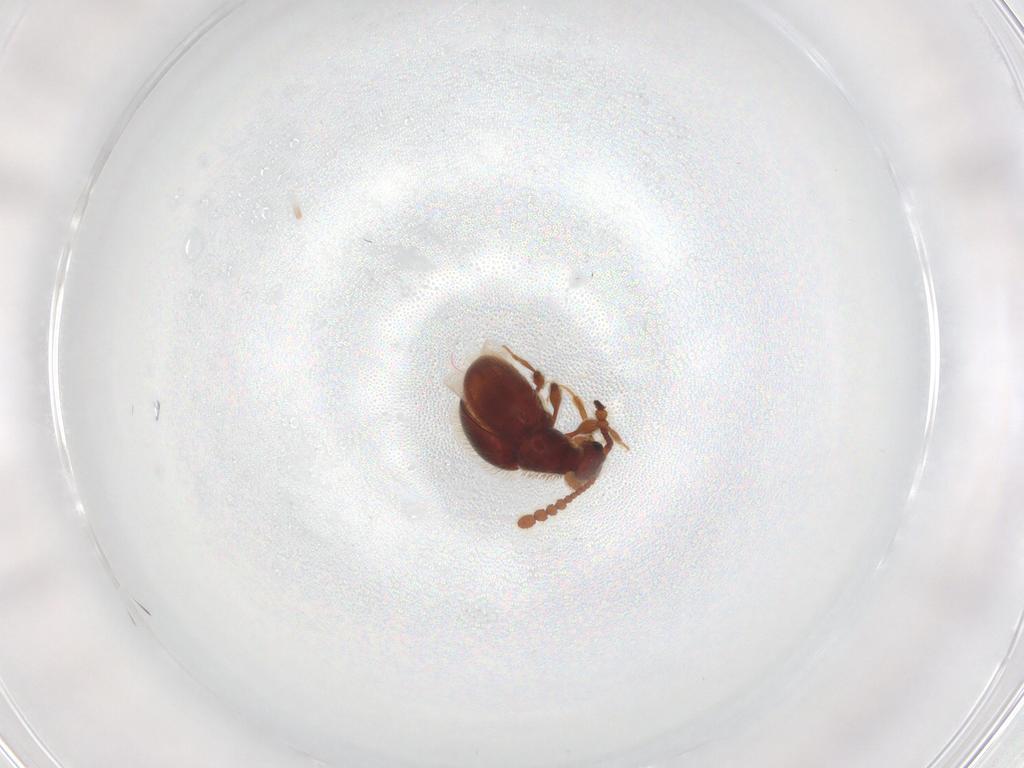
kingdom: Animalia
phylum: Arthropoda
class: Insecta
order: Coleoptera
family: Staphylinidae
